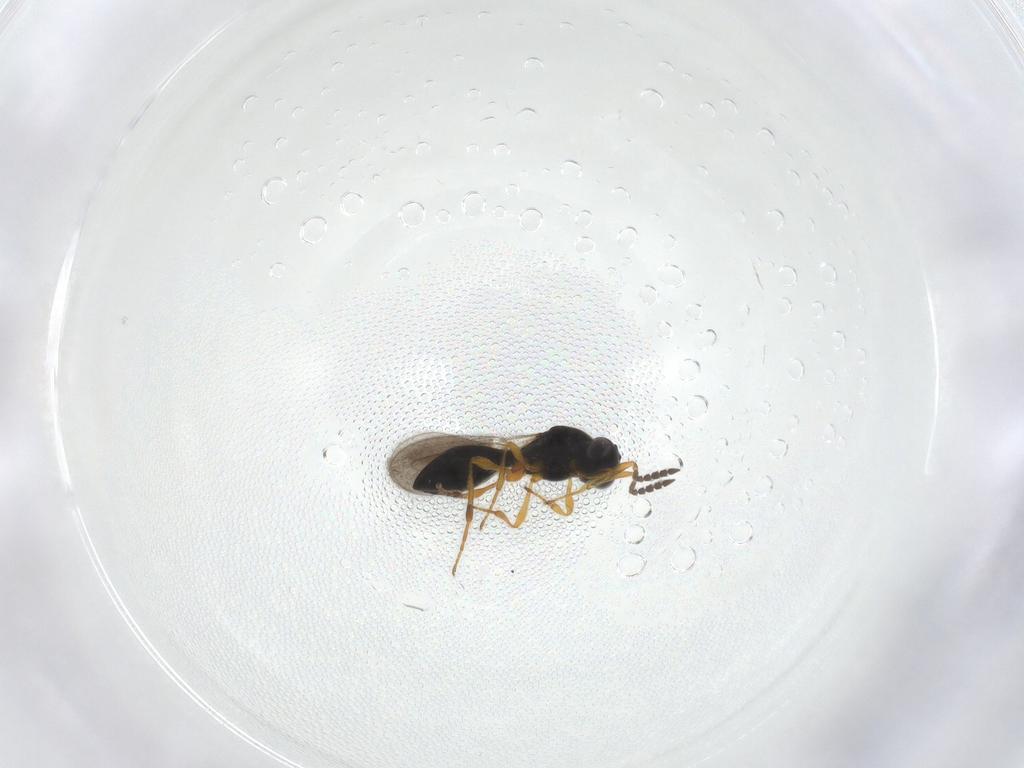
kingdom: Animalia
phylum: Arthropoda
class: Insecta
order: Hymenoptera
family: Platygastridae
